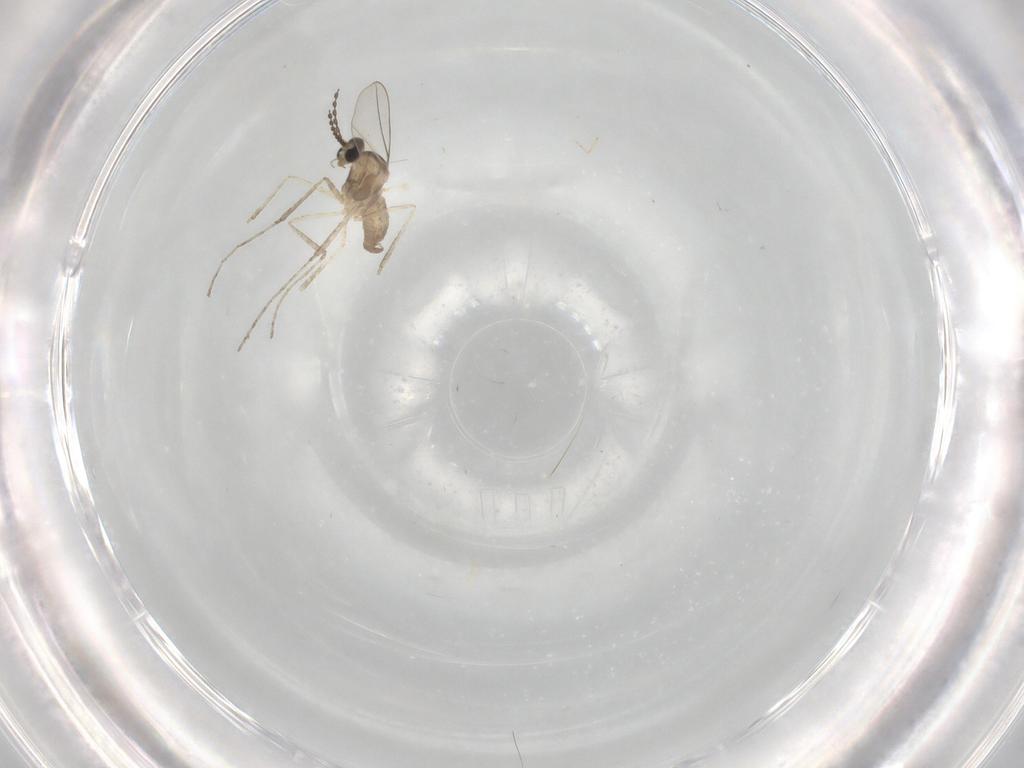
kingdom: Animalia
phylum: Arthropoda
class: Insecta
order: Diptera
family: Cecidomyiidae
